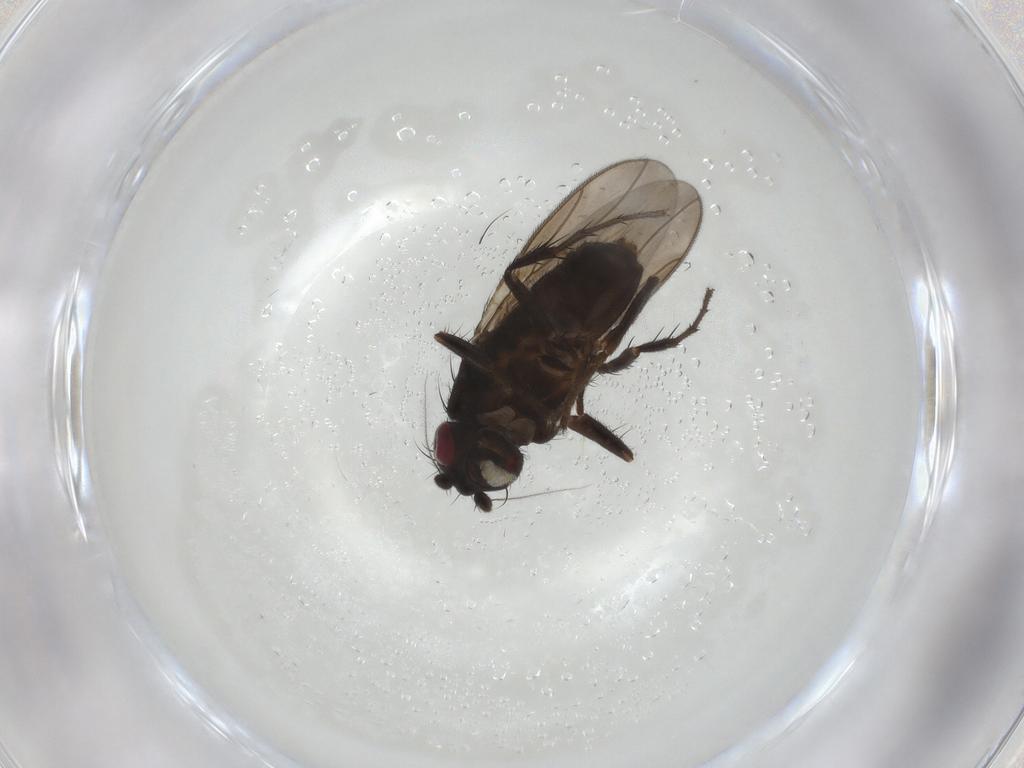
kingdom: Animalia
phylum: Arthropoda
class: Insecta
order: Diptera
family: Sphaeroceridae
